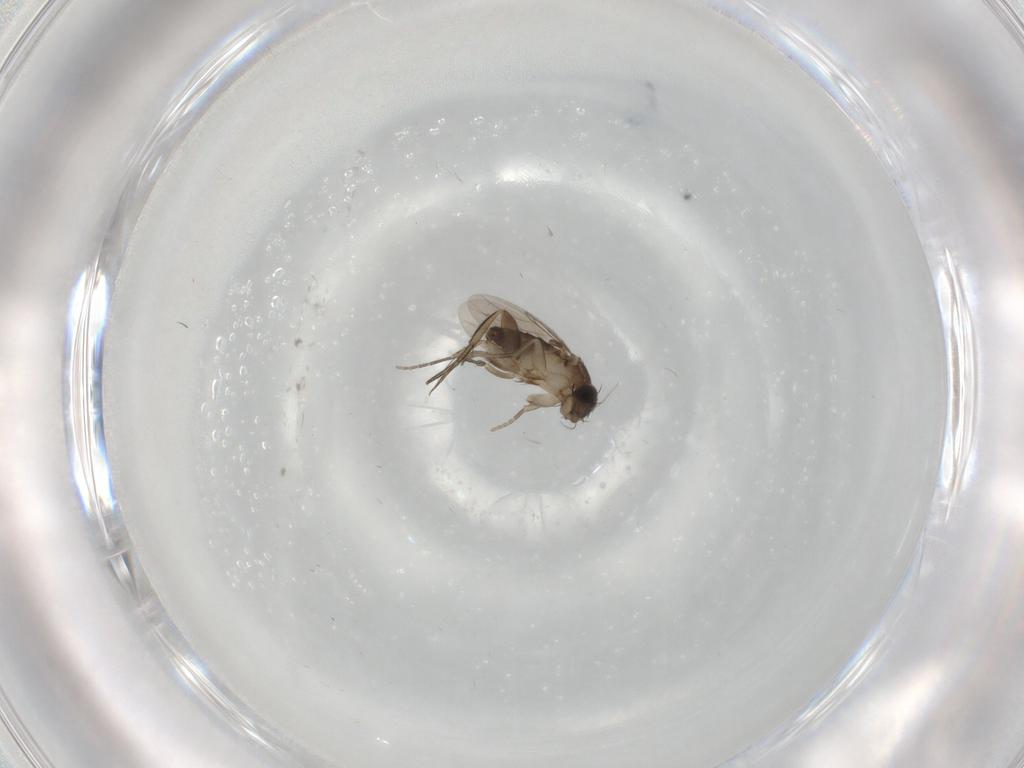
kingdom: Animalia
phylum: Arthropoda
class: Insecta
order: Diptera
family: Phoridae
